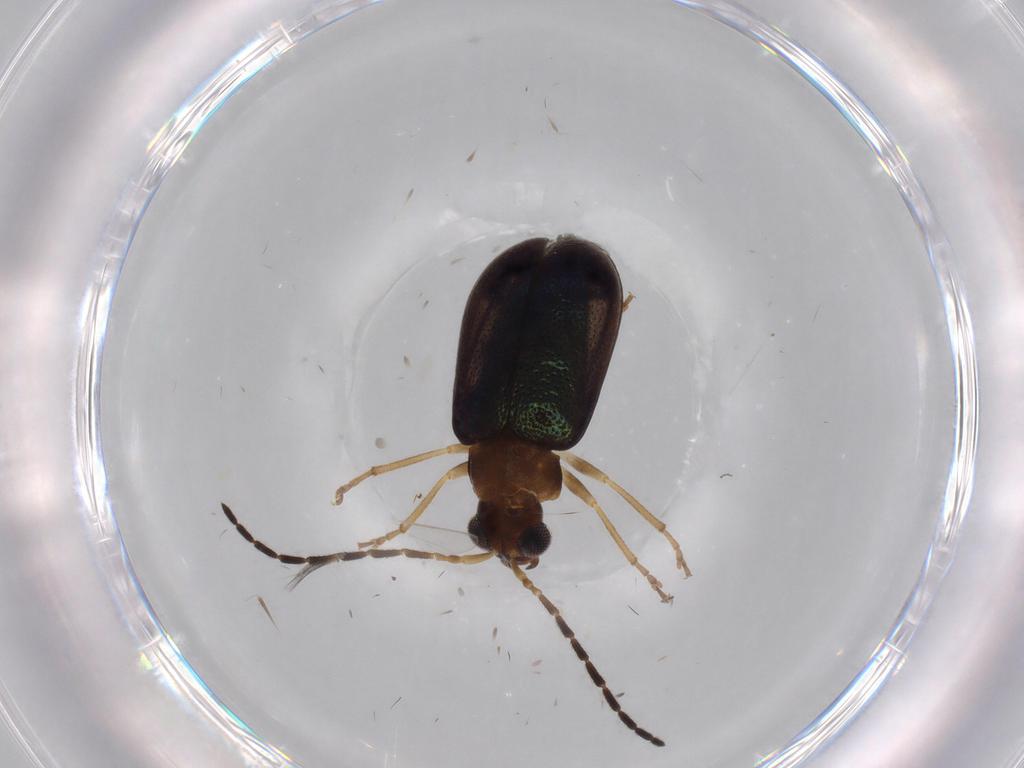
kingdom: Animalia
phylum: Arthropoda
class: Insecta
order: Coleoptera
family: Chrysomelidae
